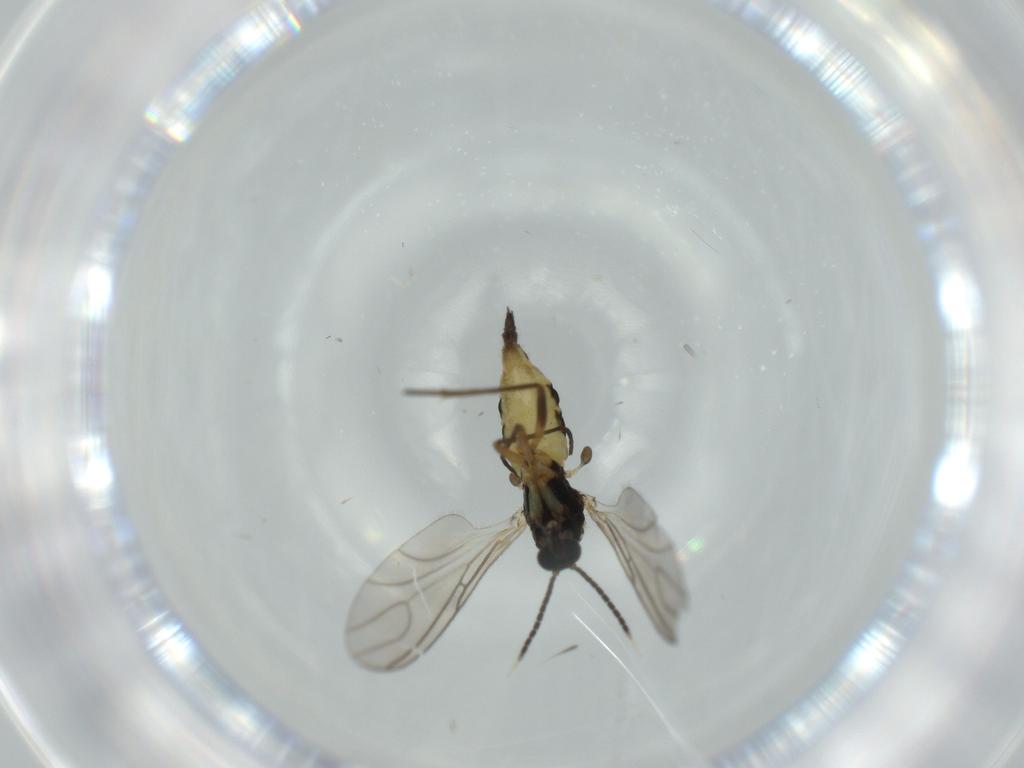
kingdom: Animalia
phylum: Arthropoda
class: Insecta
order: Diptera
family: Sciaridae
